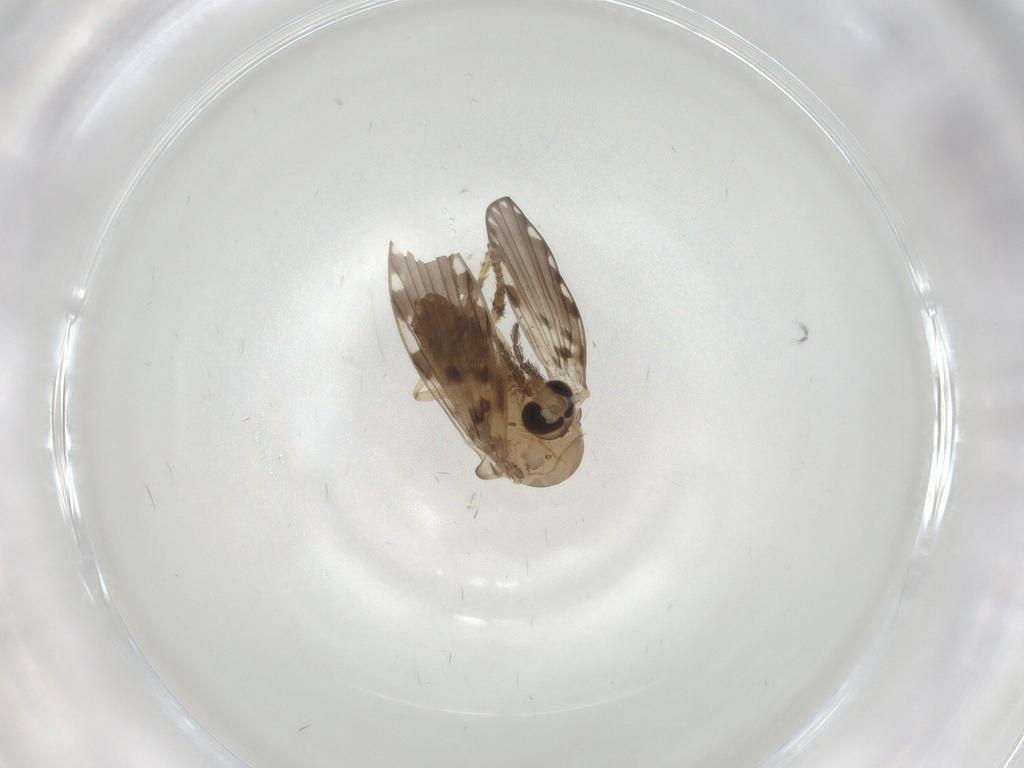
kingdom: Animalia
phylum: Arthropoda
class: Insecta
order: Diptera
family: Psychodidae
